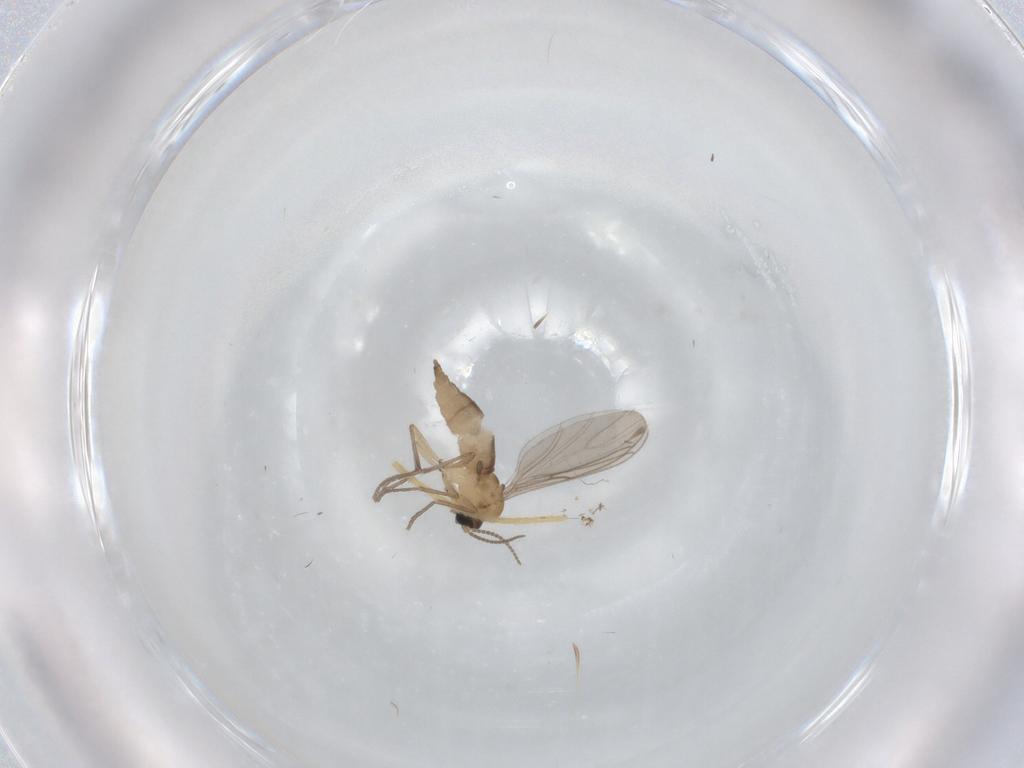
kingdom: Animalia
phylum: Arthropoda
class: Insecta
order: Diptera
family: Sciaridae
